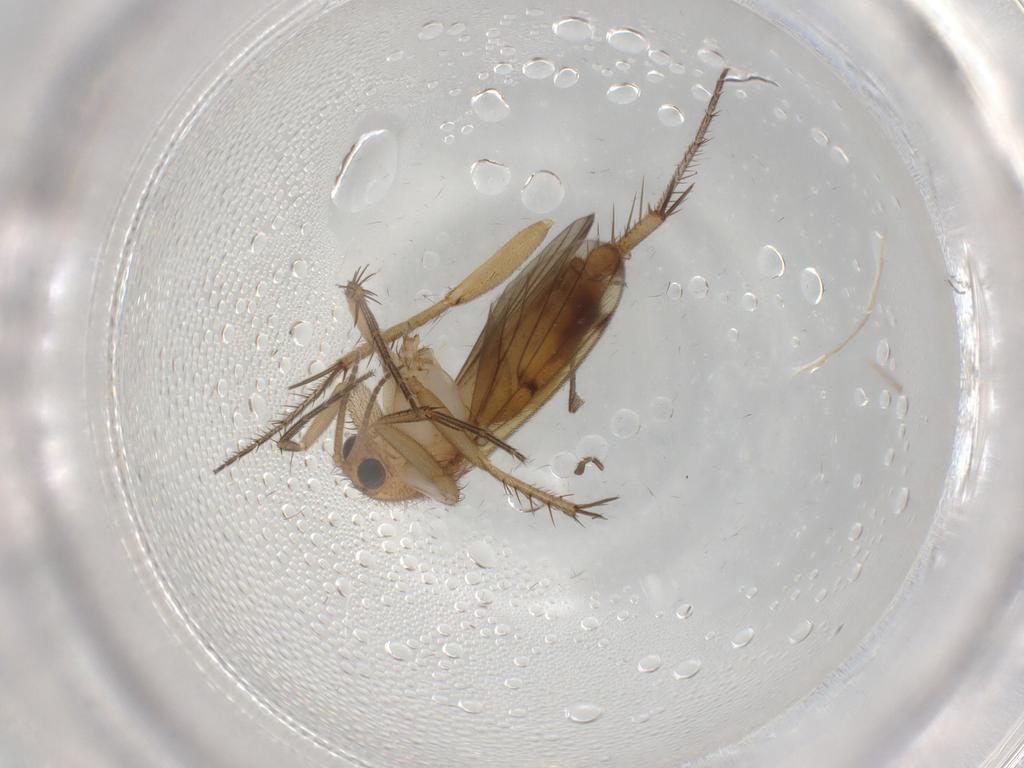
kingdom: Animalia
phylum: Arthropoda
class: Insecta
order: Diptera
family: Mycetophilidae
